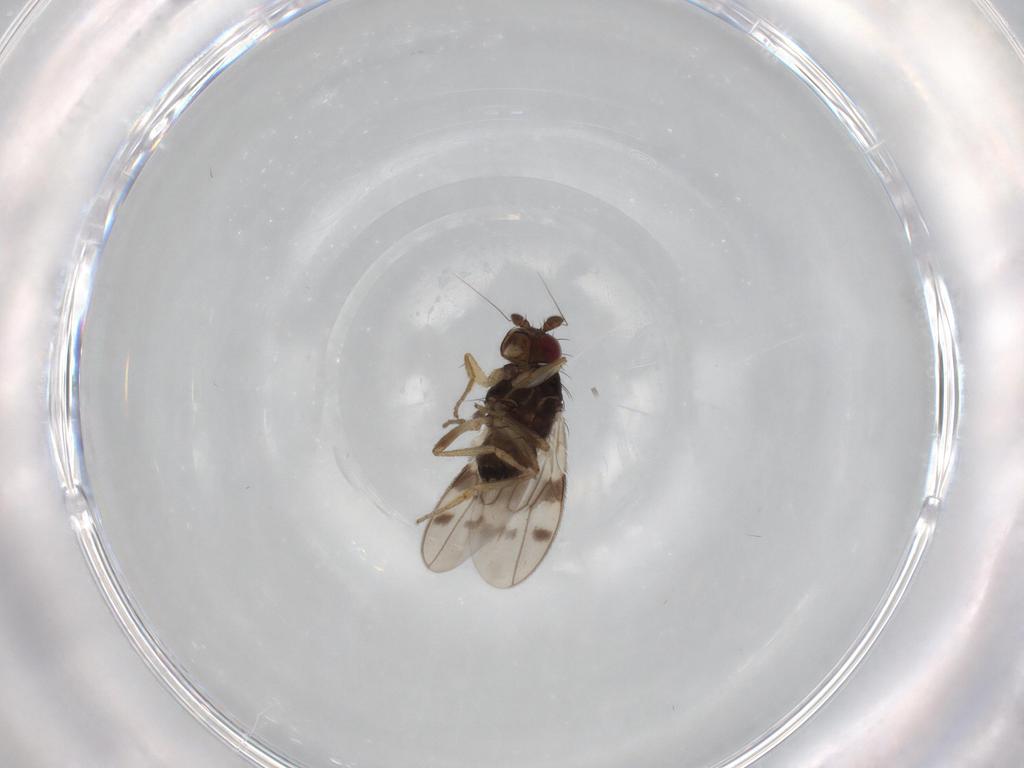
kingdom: Animalia
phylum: Arthropoda
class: Insecta
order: Diptera
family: Sphaeroceridae
